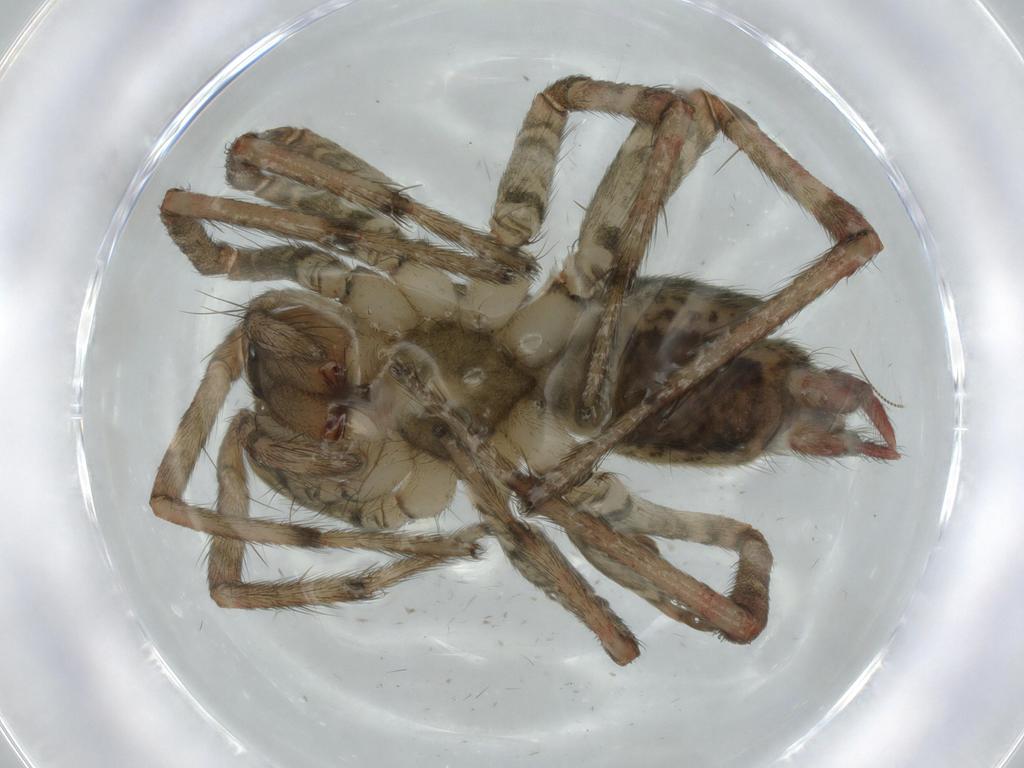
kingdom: Animalia
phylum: Arthropoda
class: Arachnida
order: Araneae
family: Agelenidae
